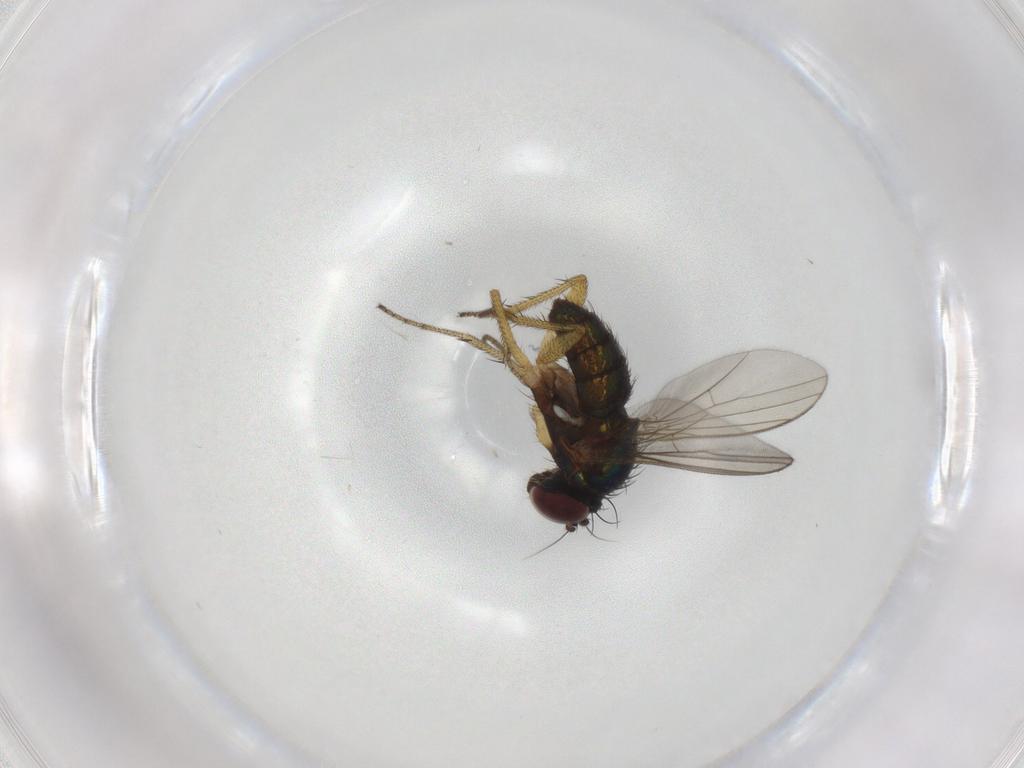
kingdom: Animalia
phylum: Arthropoda
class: Insecta
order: Diptera
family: Dolichopodidae
